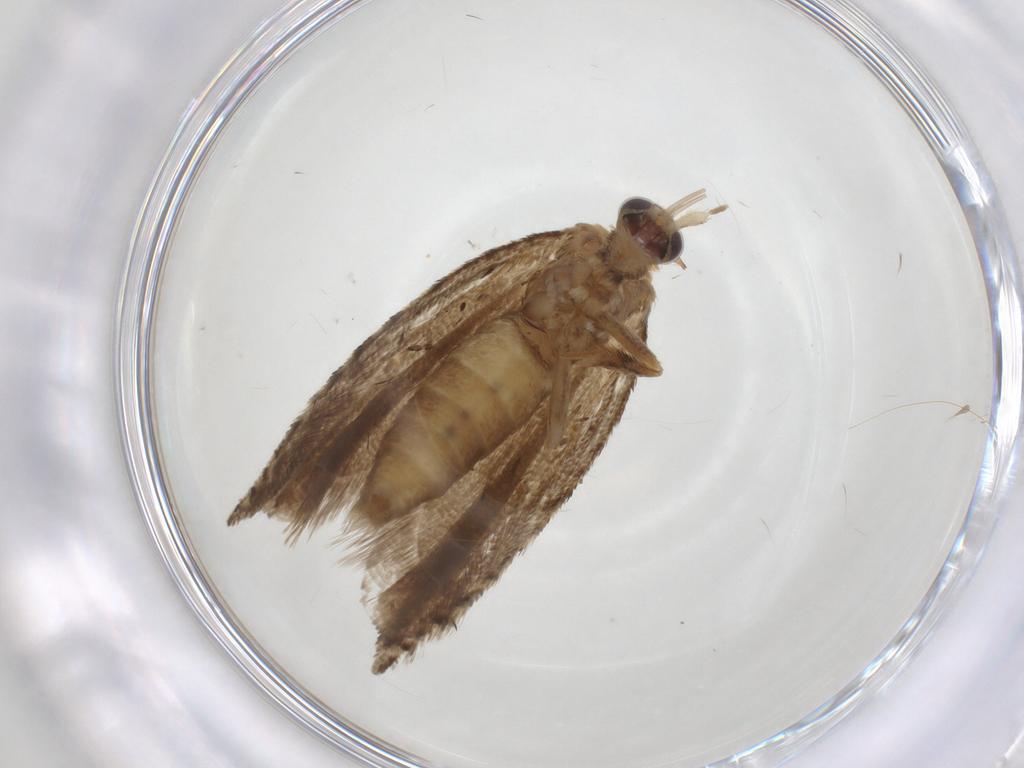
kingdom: Animalia
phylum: Arthropoda
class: Insecta
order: Lepidoptera
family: Tortricidae
